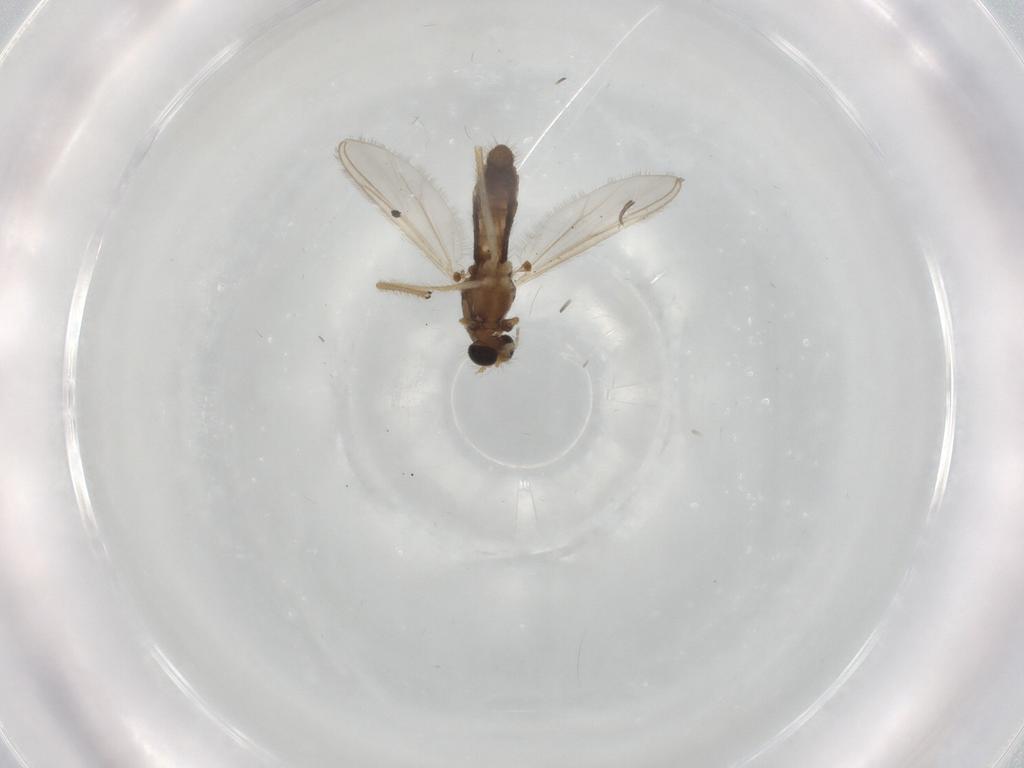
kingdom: Animalia
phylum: Arthropoda
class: Insecta
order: Diptera
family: Chironomidae
